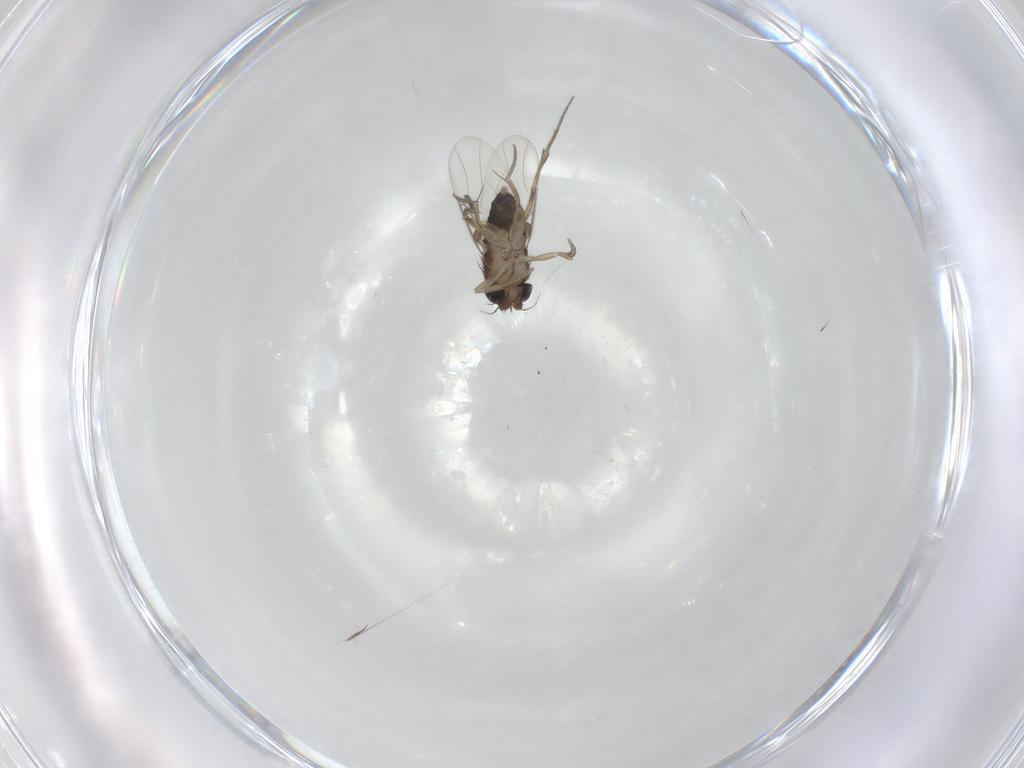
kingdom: Animalia
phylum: Arthropoda
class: Insecta
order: Diptera
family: Phoridae
